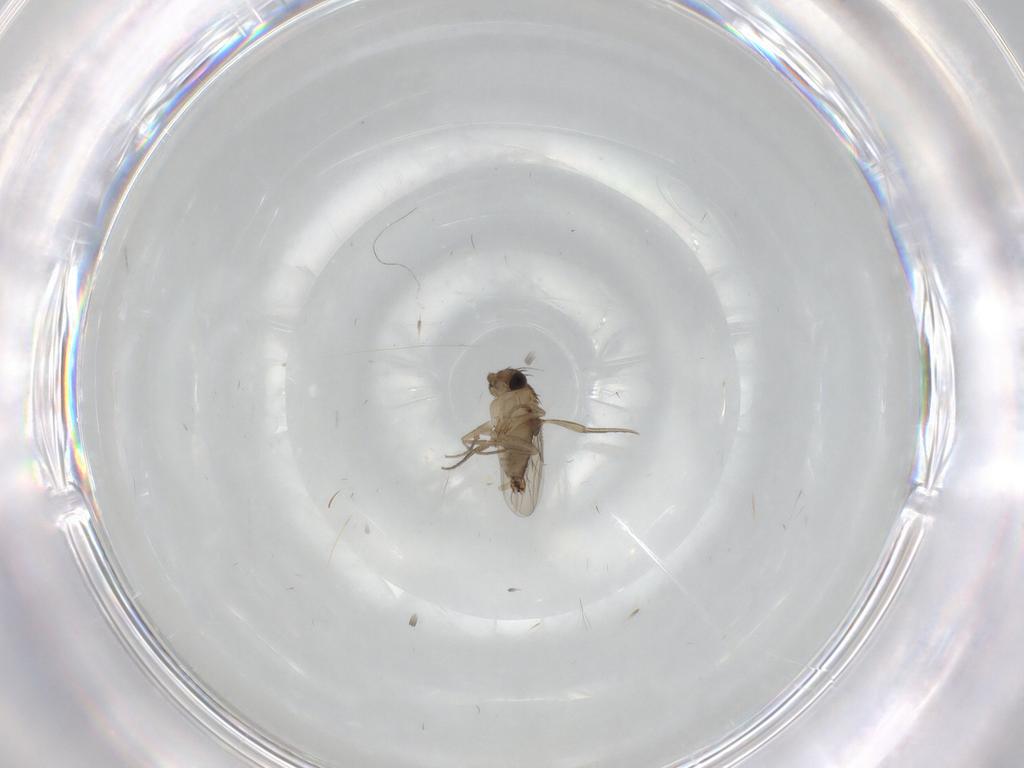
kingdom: Animalia
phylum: Arthropoda
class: Insecta
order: Diptera
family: Phoridae
